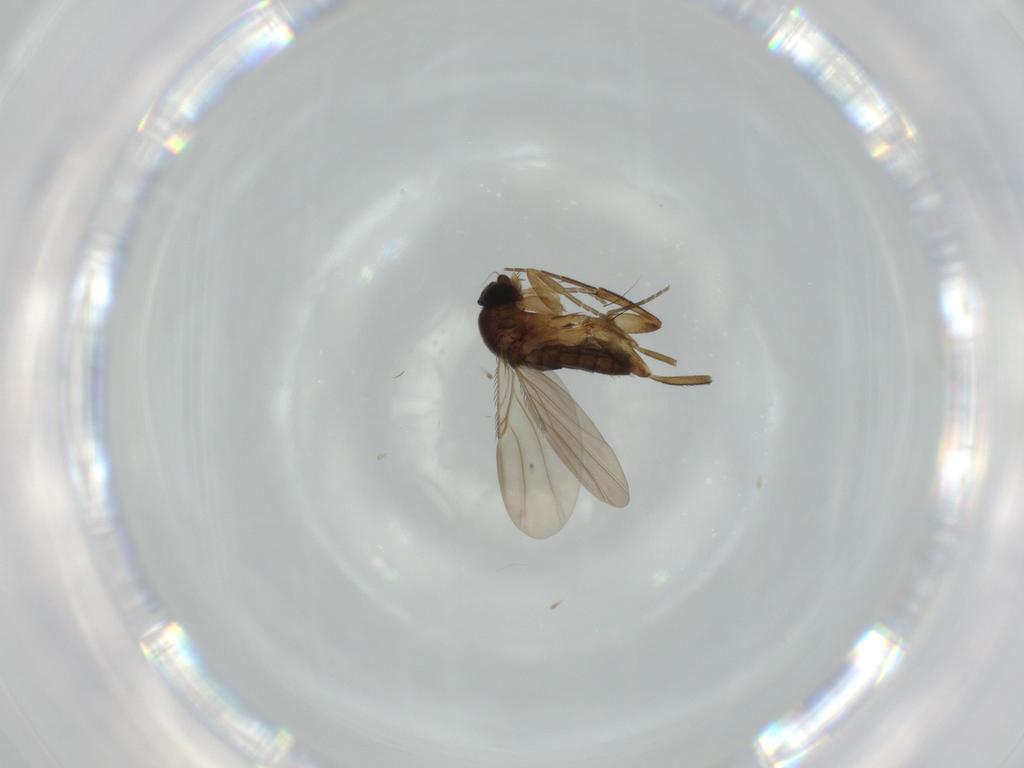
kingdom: Animalia
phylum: Arthropoda
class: Insecta
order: Diptera
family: Phoridae
